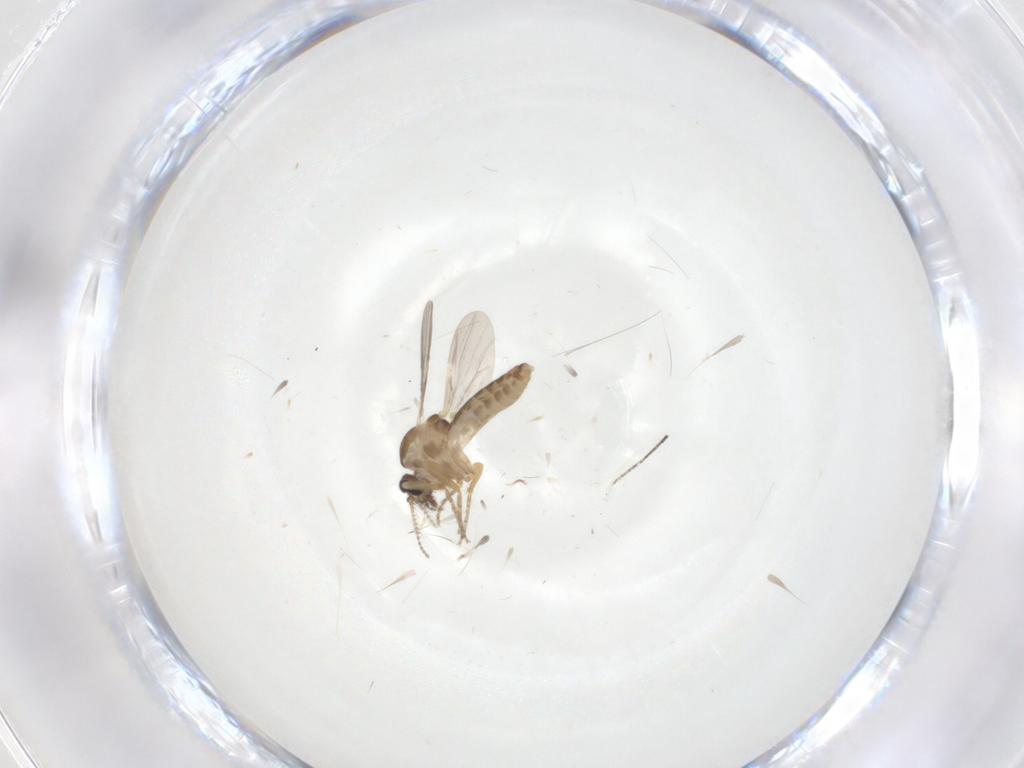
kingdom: Animalia
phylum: Arthropoda
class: Insecta
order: Diptera
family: Ceratopogonidae
